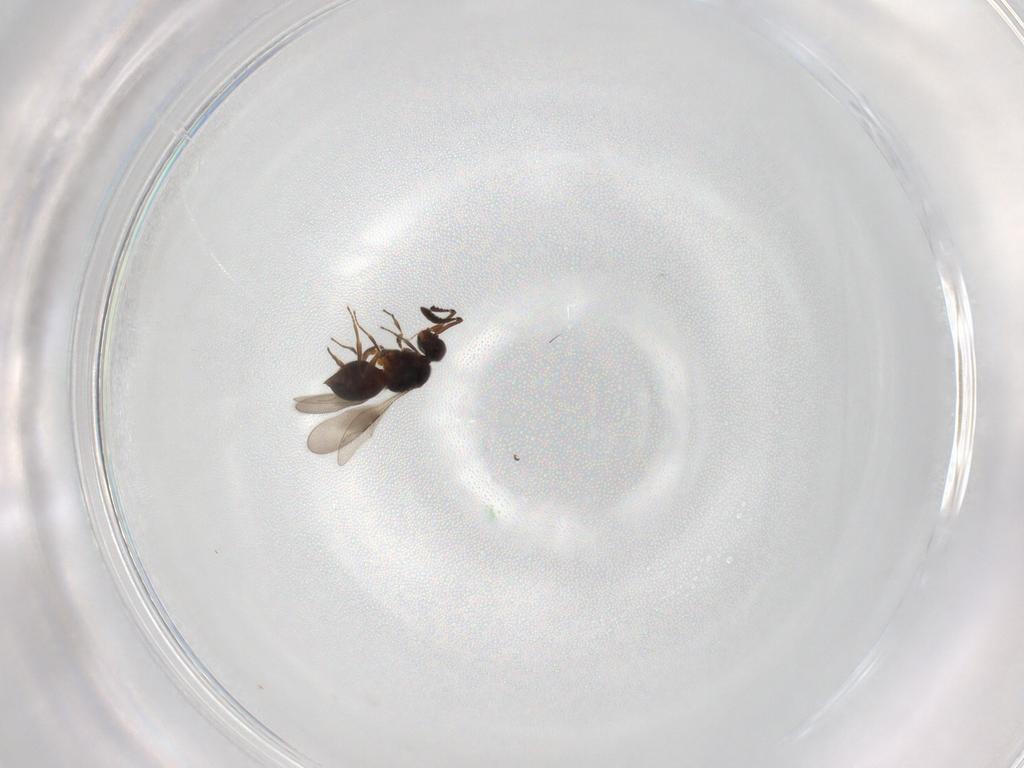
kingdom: Animalia
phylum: Arthropoda
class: Insecta
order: Hymenoptera
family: Ceraphronidae
